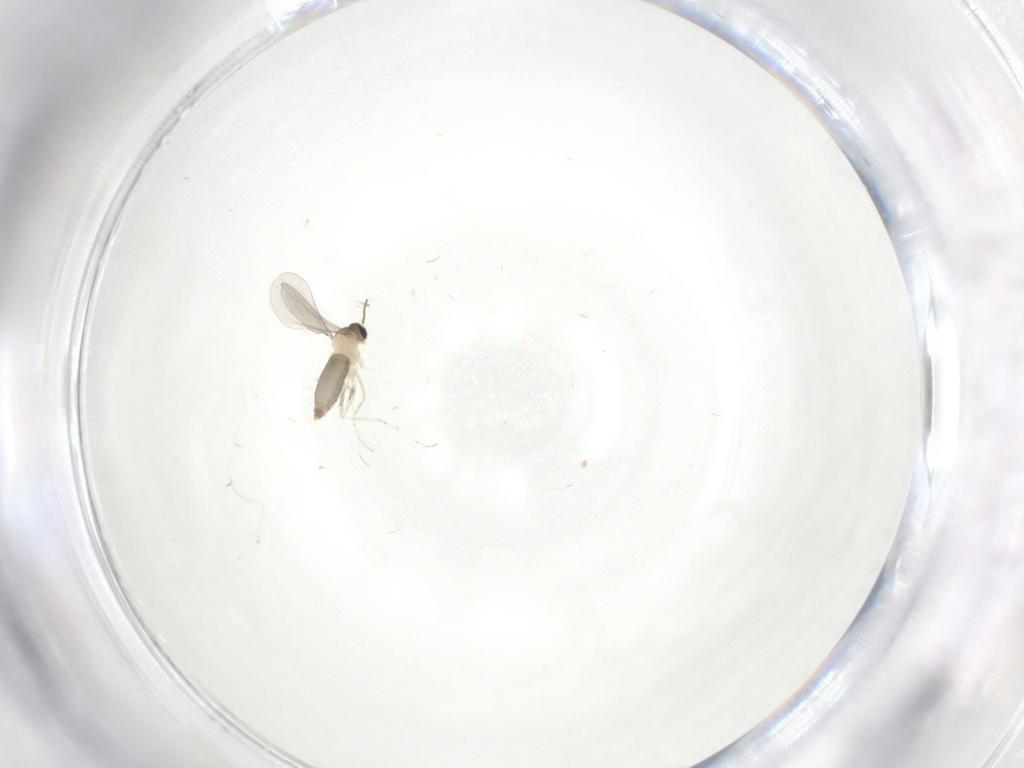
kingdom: Animalia
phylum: Arthropoda
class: Insecta
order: Diptera
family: Cecidomyiidae
